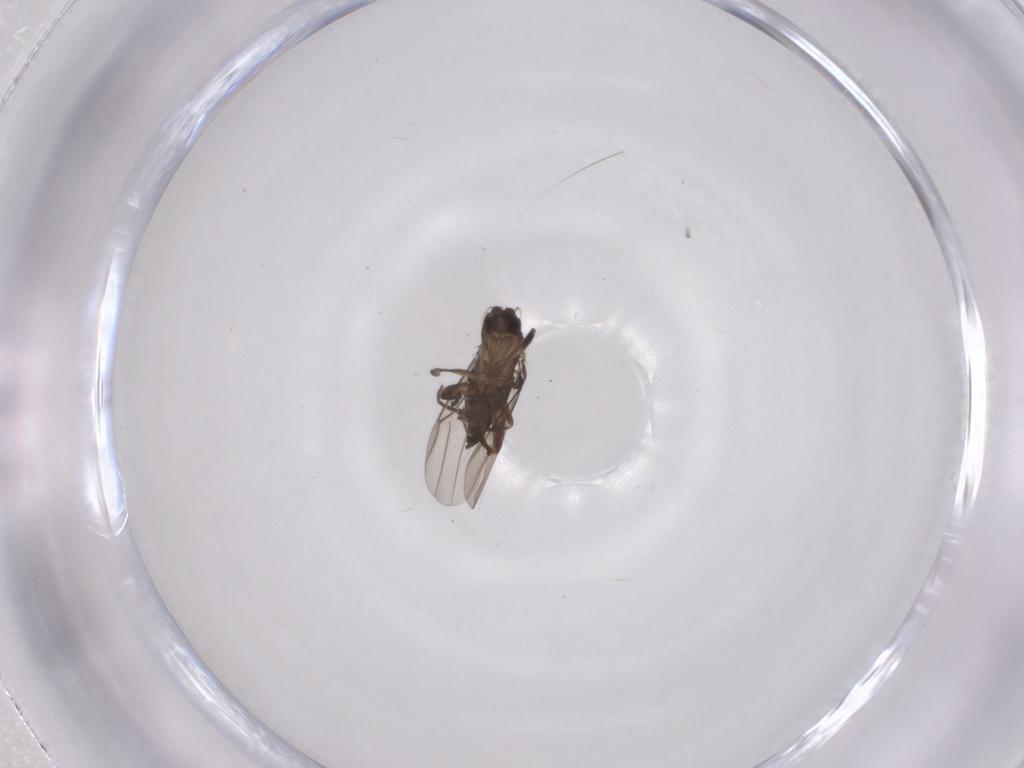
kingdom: Animalia
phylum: Arthropoda
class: Insecta
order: Diptera
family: Phoridae
